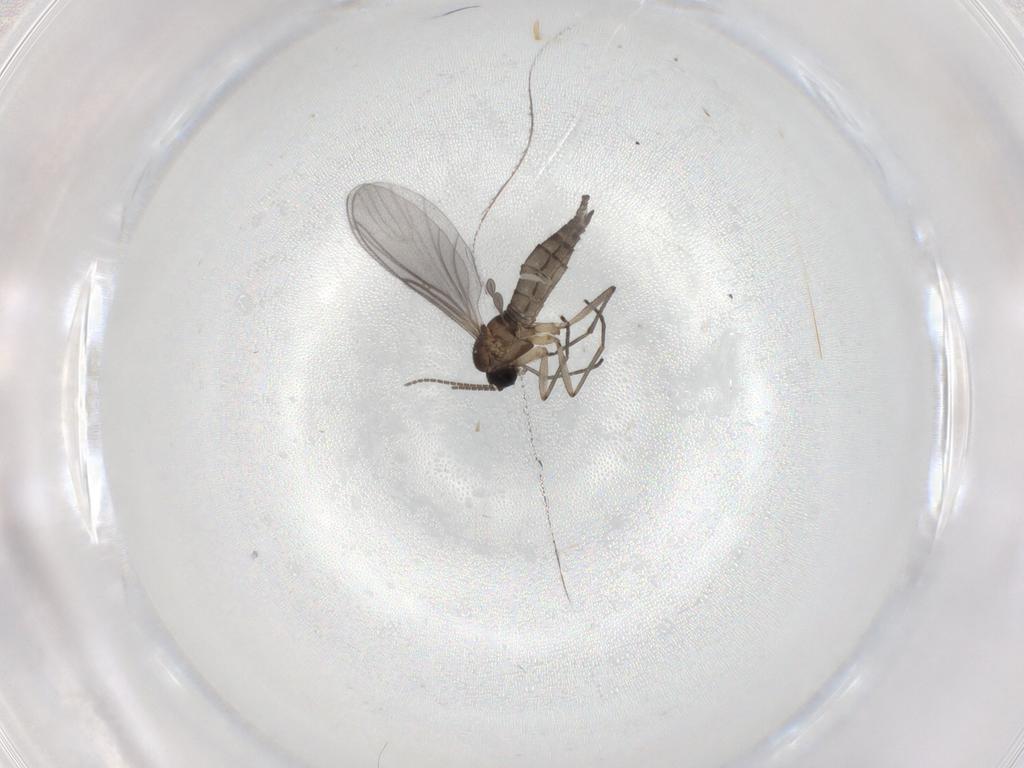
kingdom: Animalia
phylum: Arthropoda
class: Insecta
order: Diptera
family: Sciaridae
